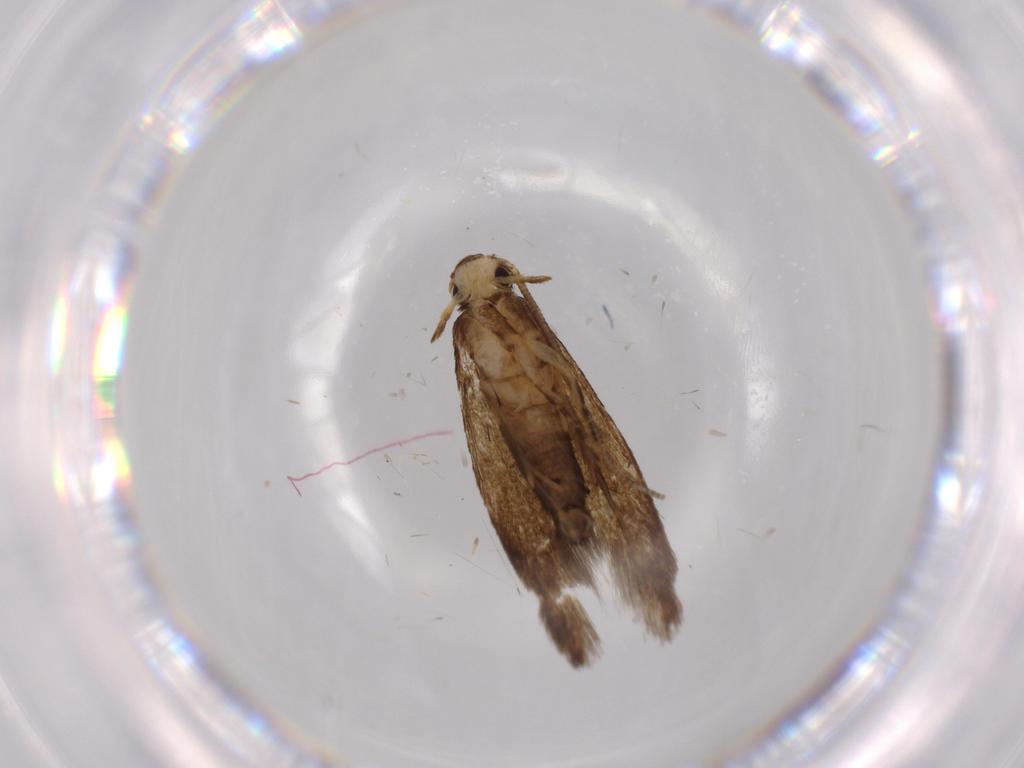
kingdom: Animalia
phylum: Arthropoda
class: Insecta
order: Lepidoptera
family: Tineidae
